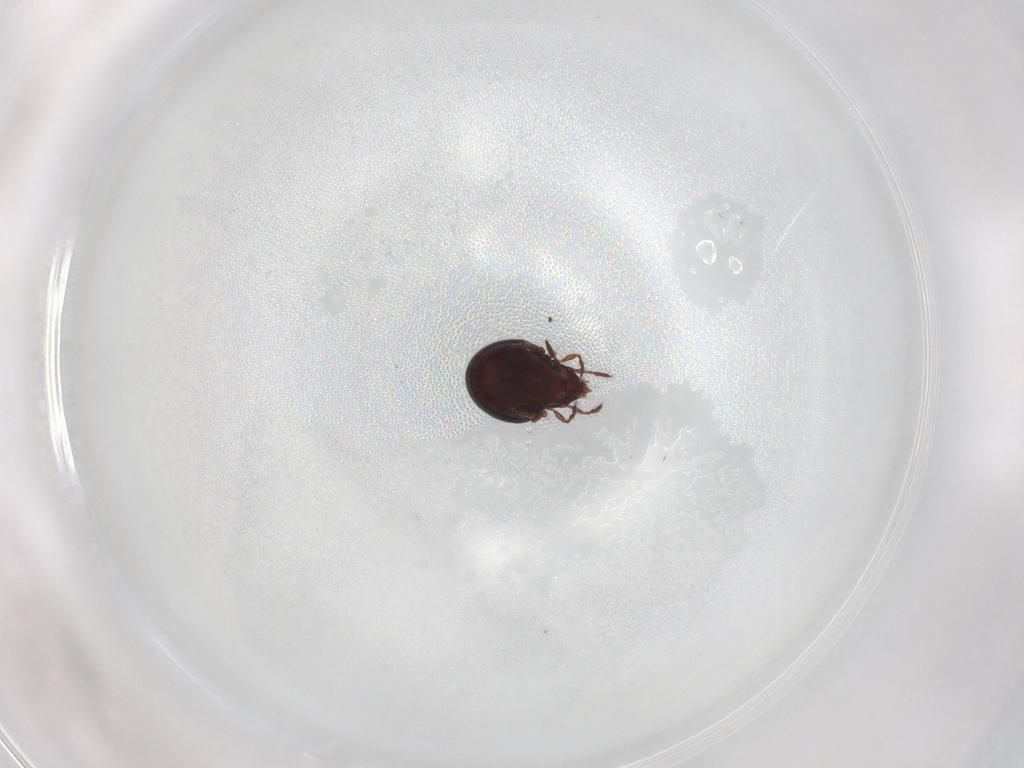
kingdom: Animalia
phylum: Arthropoda
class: Arachnida
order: Sarcoptiformes
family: Ceratoppiidae
